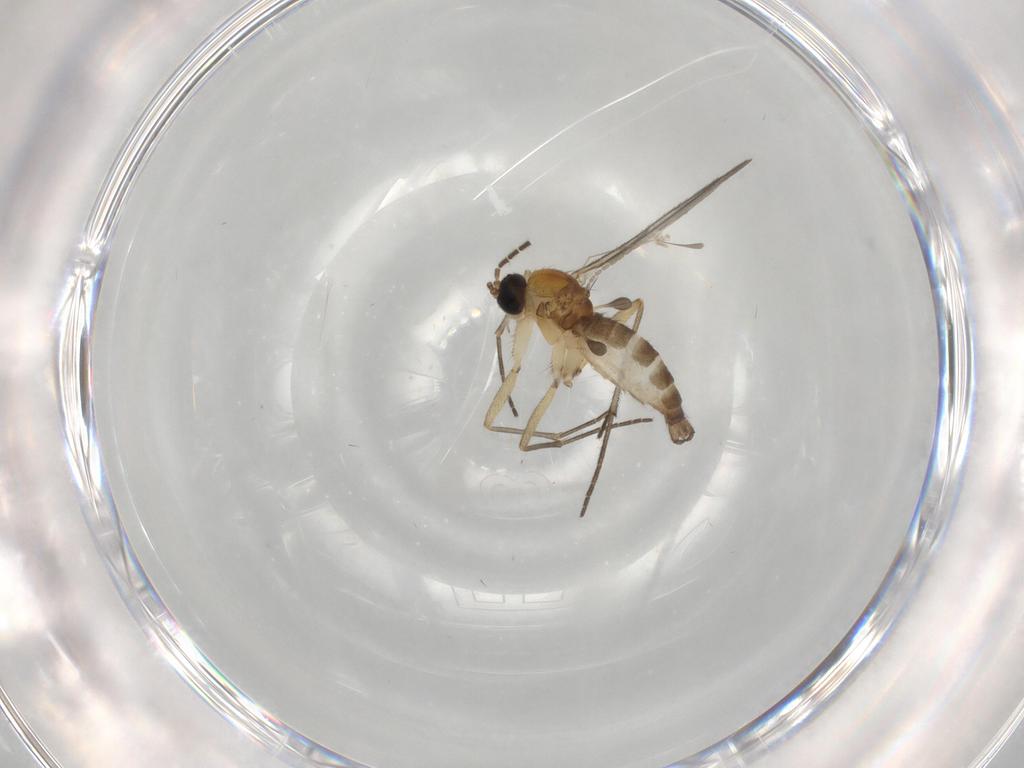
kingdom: Animalia
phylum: Arthropoda
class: Insecta
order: Diptera
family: Sciaridae
